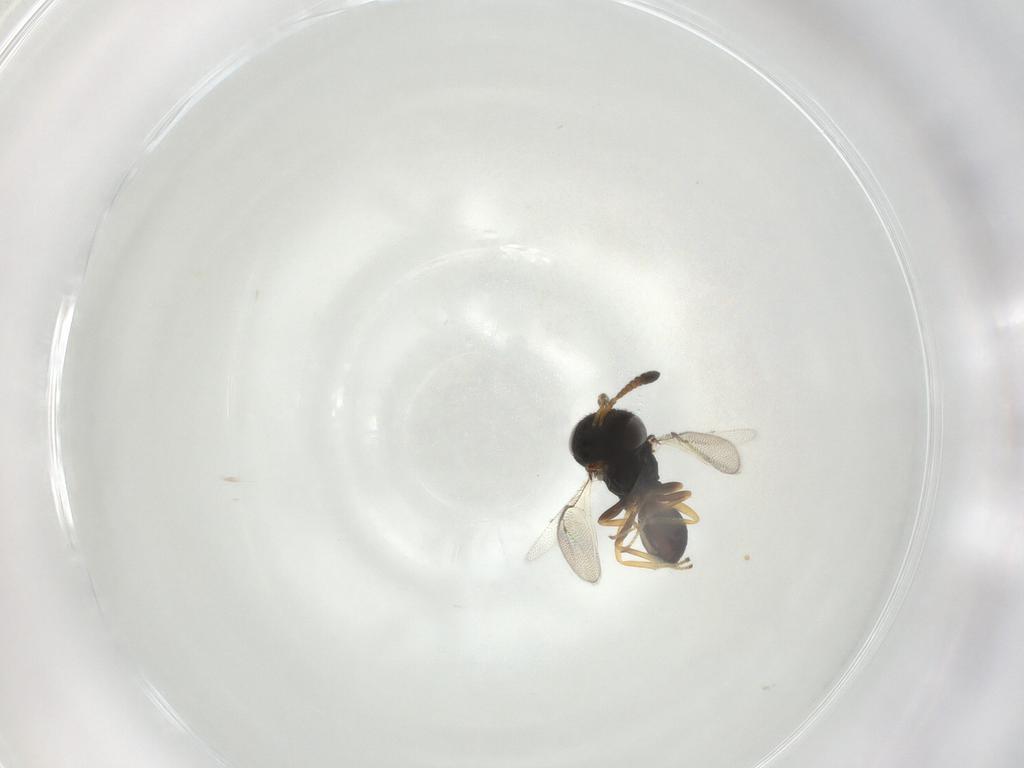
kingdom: Animalia
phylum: Arthropoda
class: Insecta
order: Hymenoptera
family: Pteromalidae
